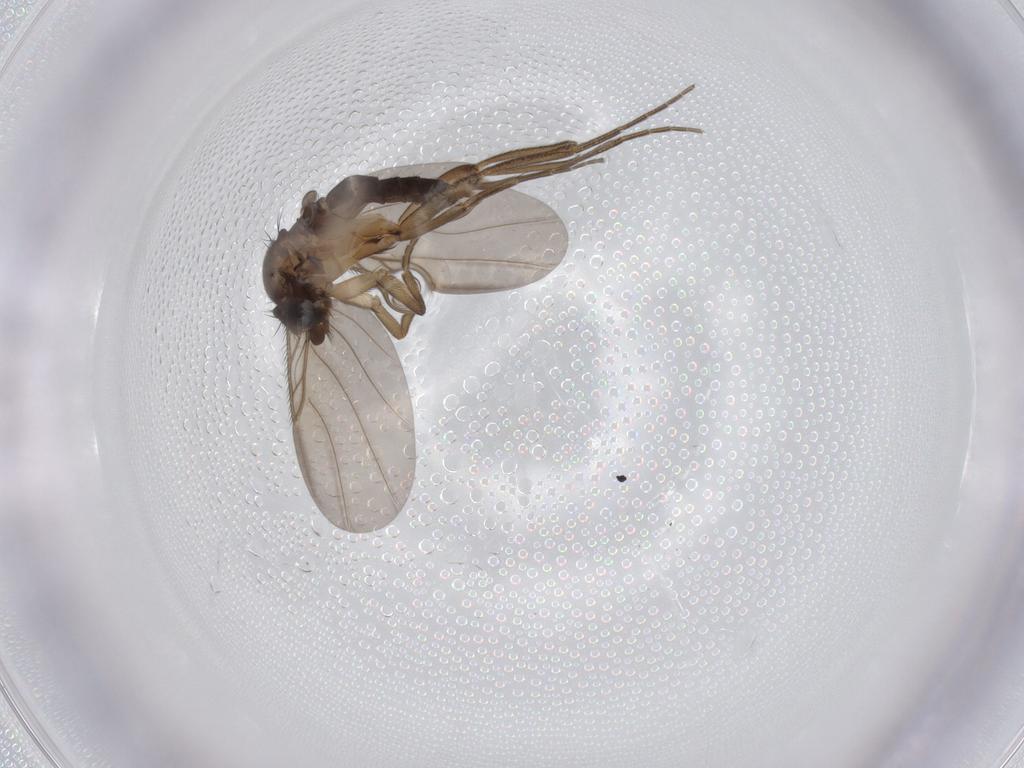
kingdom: Animalia
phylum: Arthropoda
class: Insecta
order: Diptera
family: Phoridae
